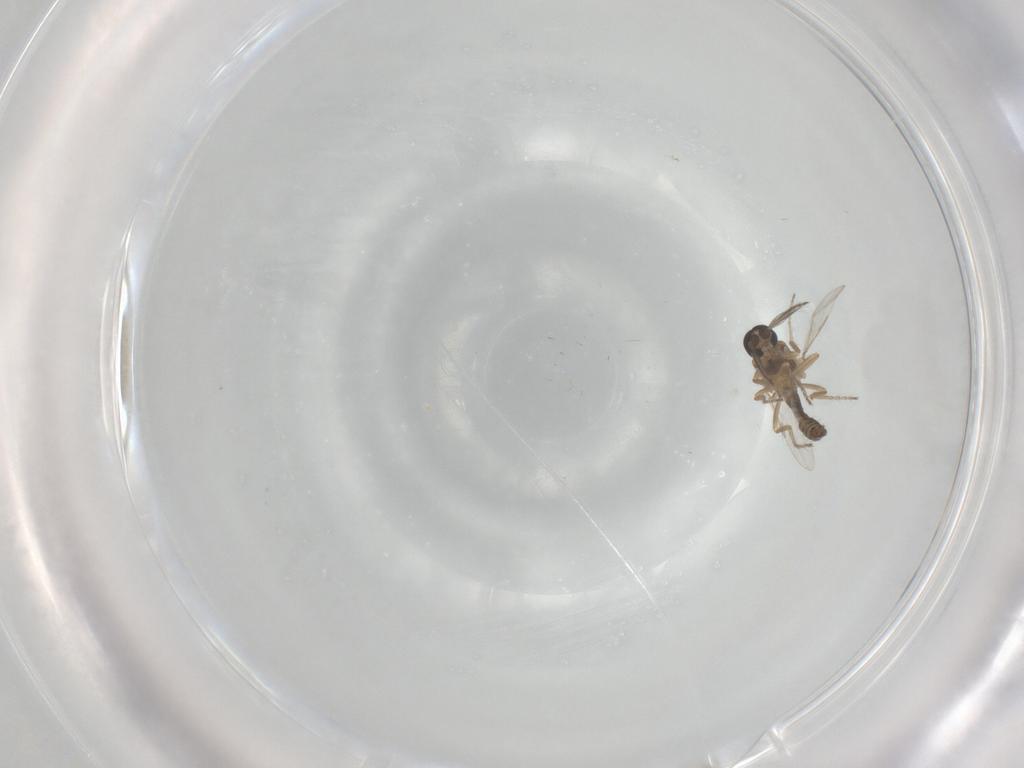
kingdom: Animalia
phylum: Arthropoda
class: Insecta
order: Diptera
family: Ceratopogonidae
